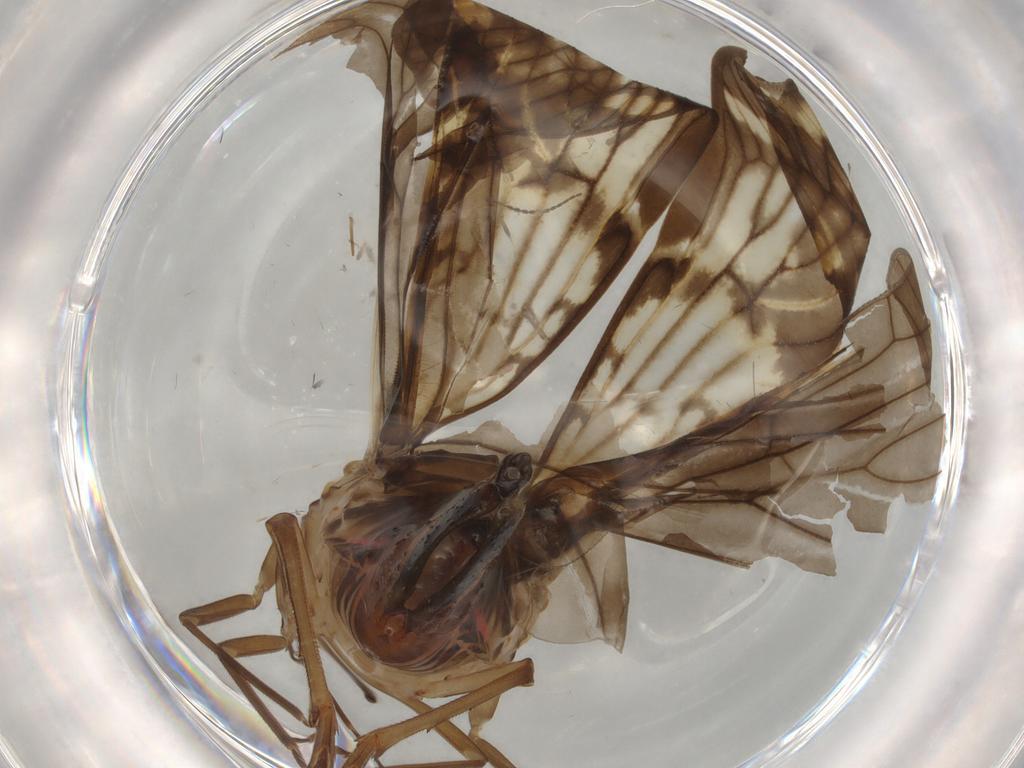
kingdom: Animalia
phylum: Arthropoda
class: Insecta
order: Hemiptera
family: Cixiidae
